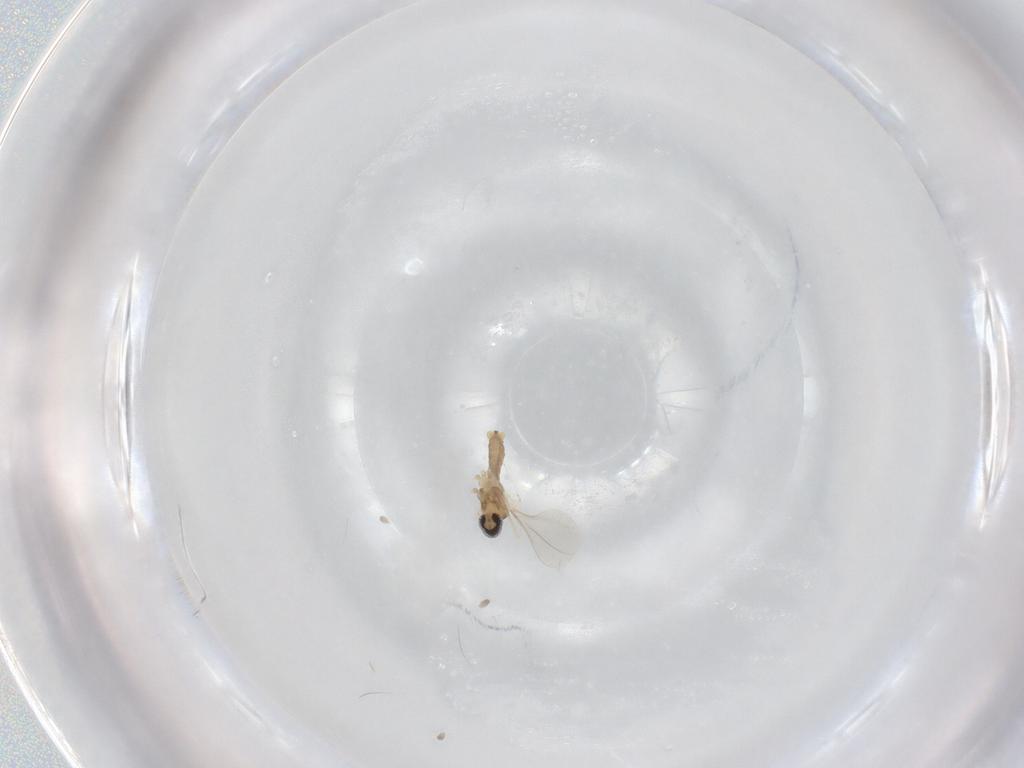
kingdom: Animalia
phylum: Arthropoda
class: Insecta
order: Diptera
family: Cecidomyiidae
